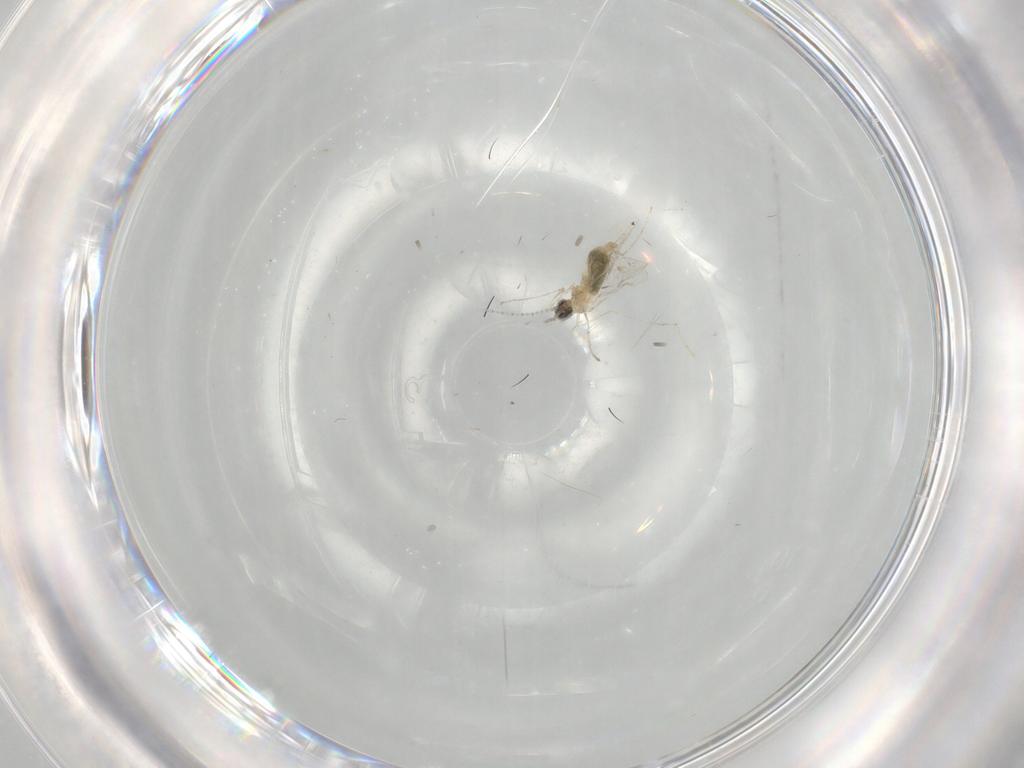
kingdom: Animalia
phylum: Arthropoda
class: Insecta
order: Diptera
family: Cecidomyiidae
